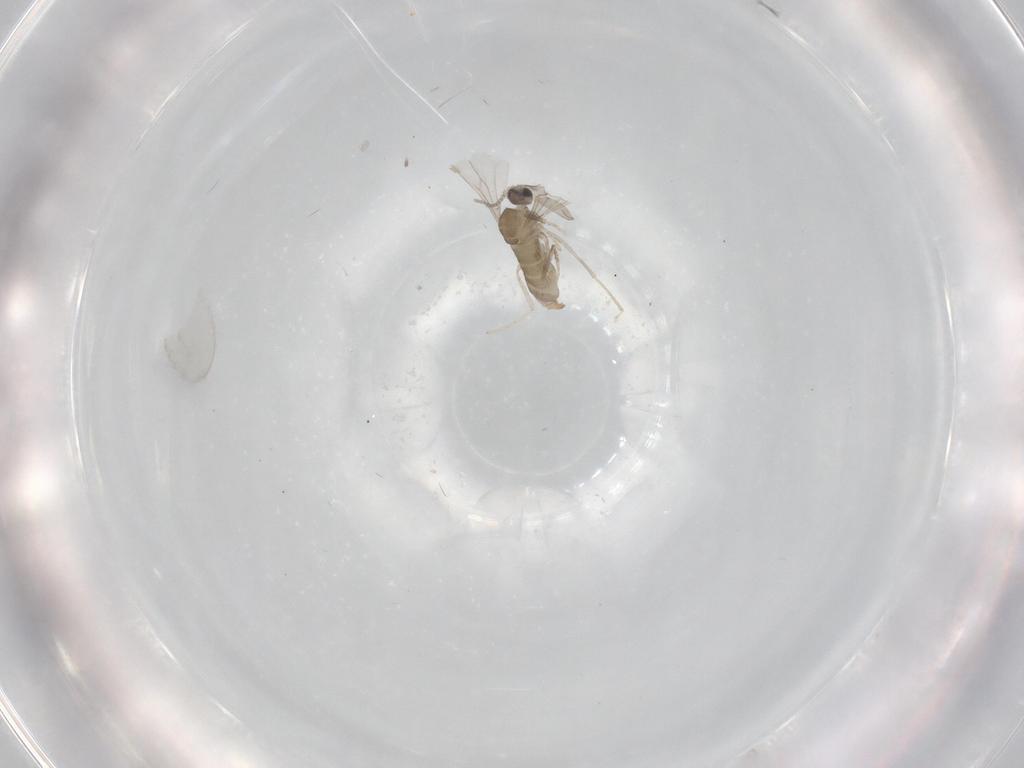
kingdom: Animalia
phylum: Arthropoda
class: Insecta
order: Diptera
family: Cecidomyiidae
